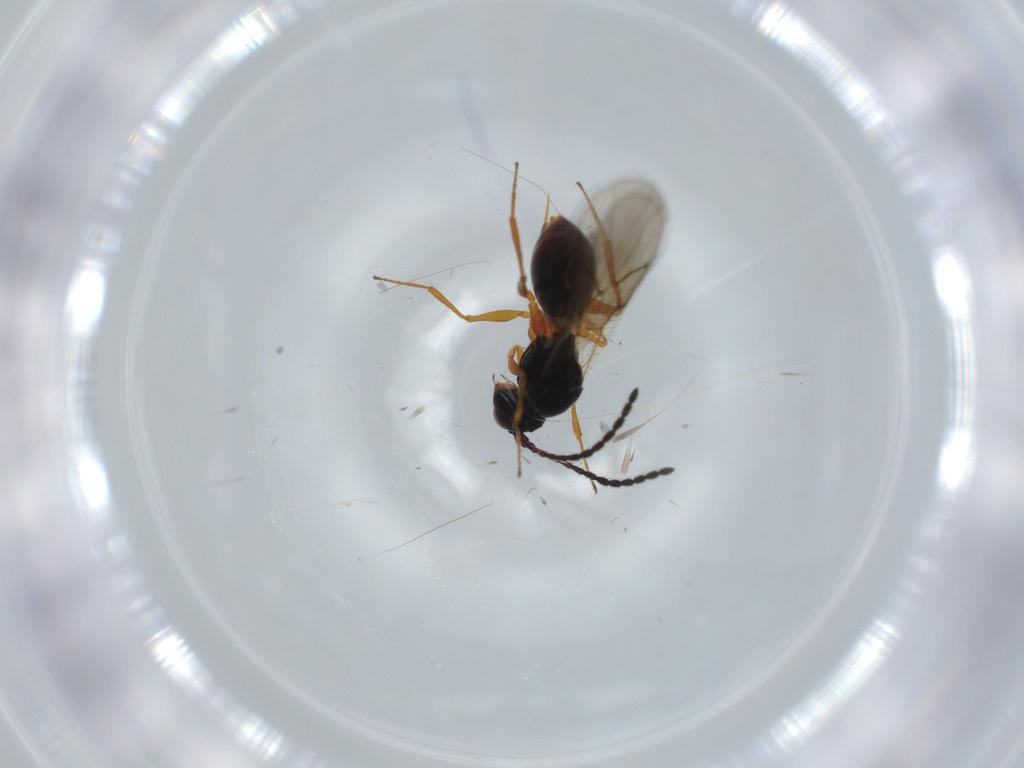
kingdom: Animalia
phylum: Arthropoda
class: Insecta
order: Hymenoptera
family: Figitidae
